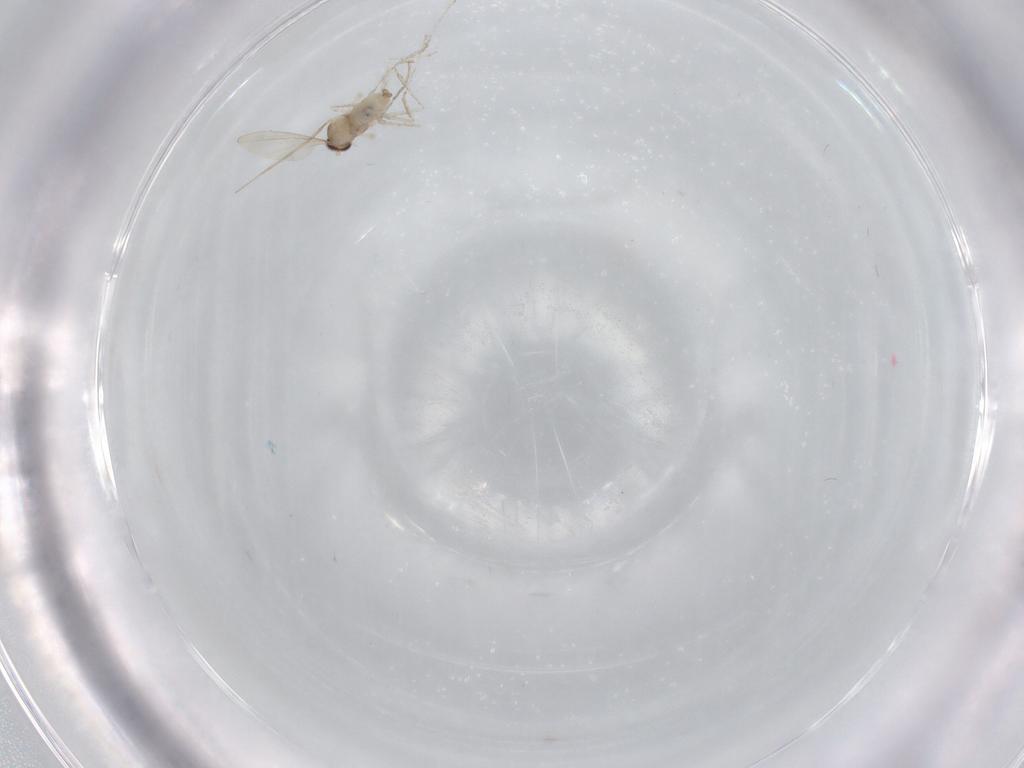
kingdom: Animalia
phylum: Arthropoda
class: Insecta
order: Diptera
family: Cecidomyiidae
